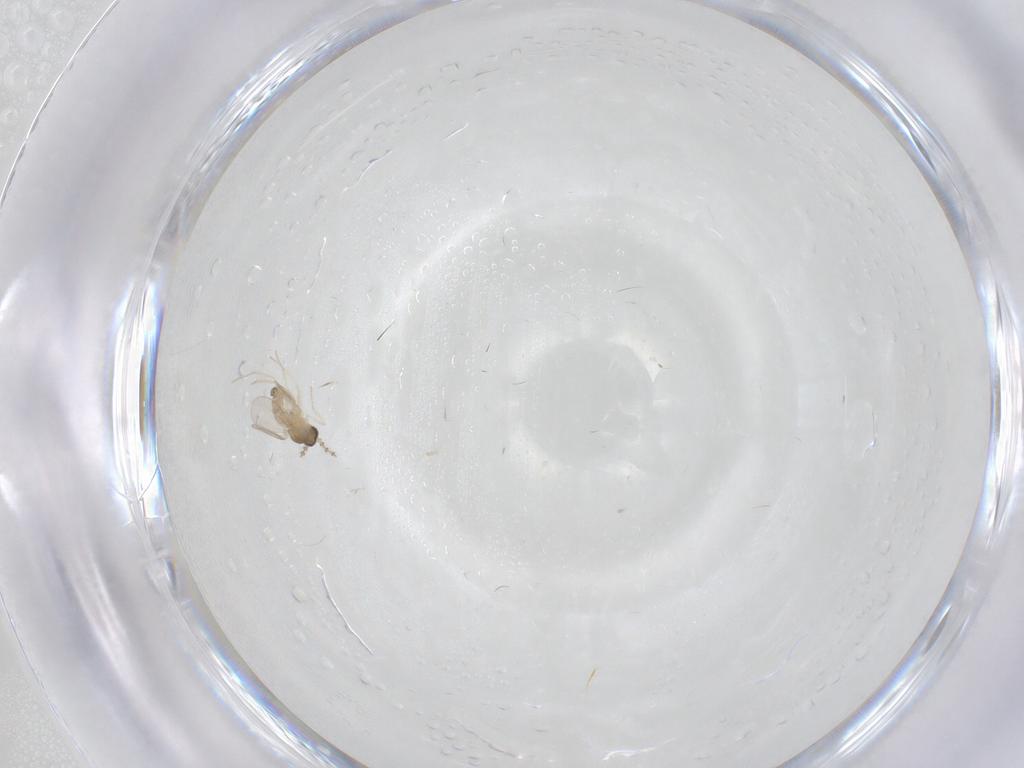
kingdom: Animalia
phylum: Arthropoda
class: Insecta
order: Diptera
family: Cecidomyiidae
